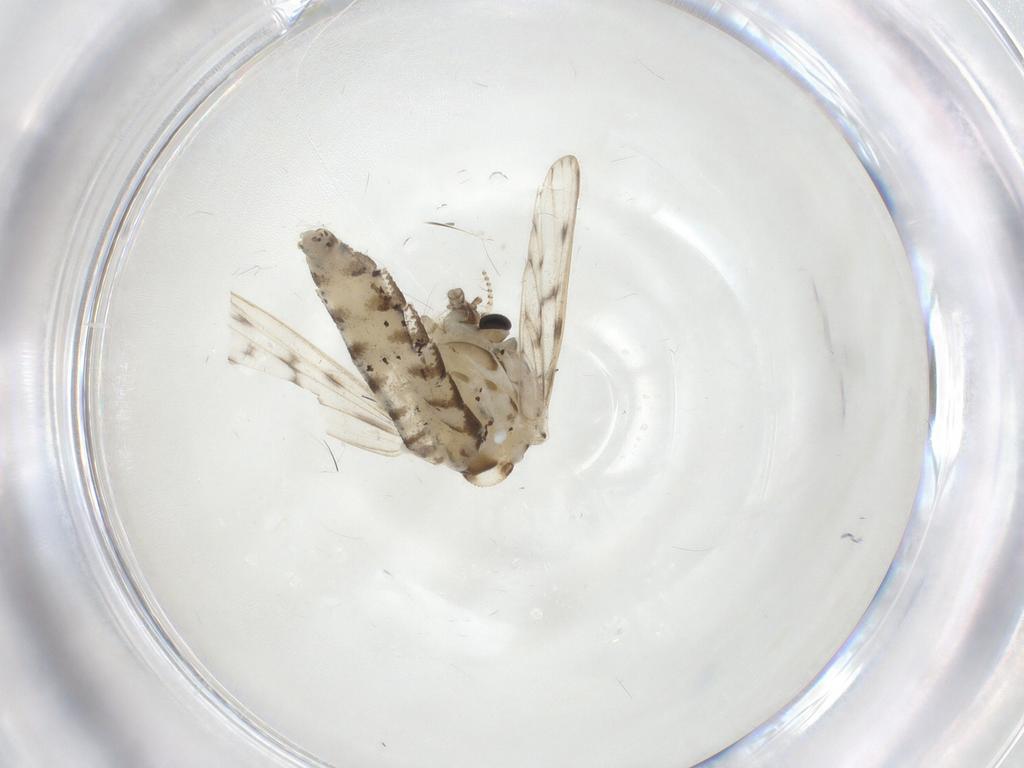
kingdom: Animalia
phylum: Arthropoda
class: Insecta
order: Diptera
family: Chaoboridae
